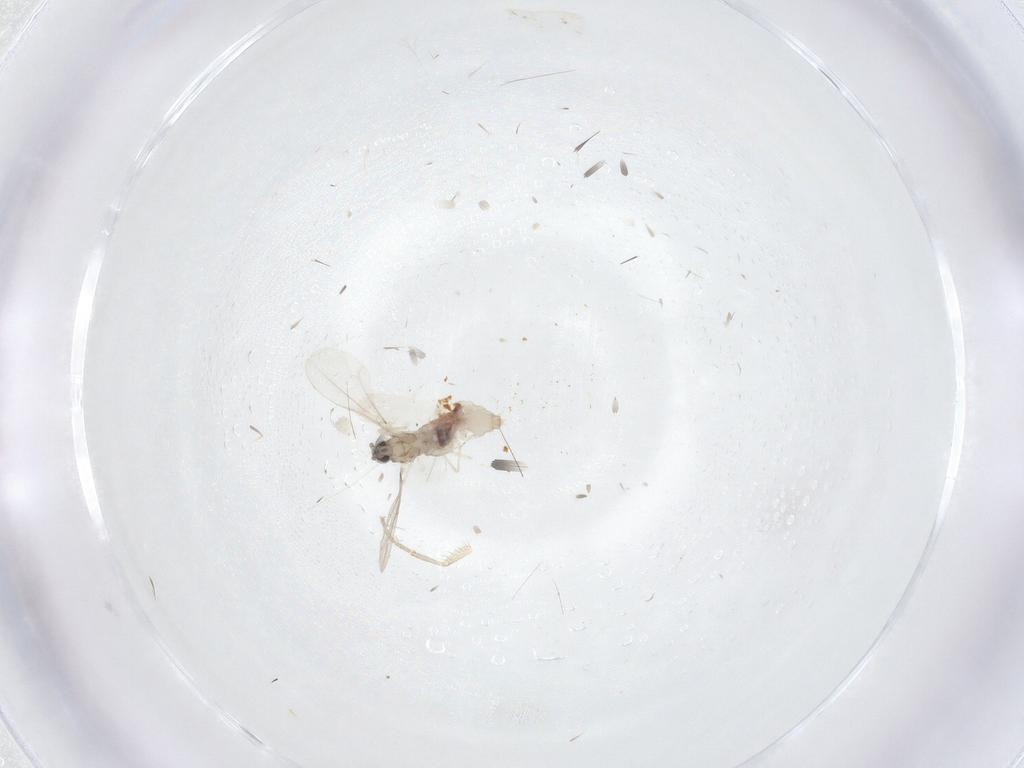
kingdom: Animalia
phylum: Arthropoda
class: Insecta
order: Diptera
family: Cecidomyiidae
